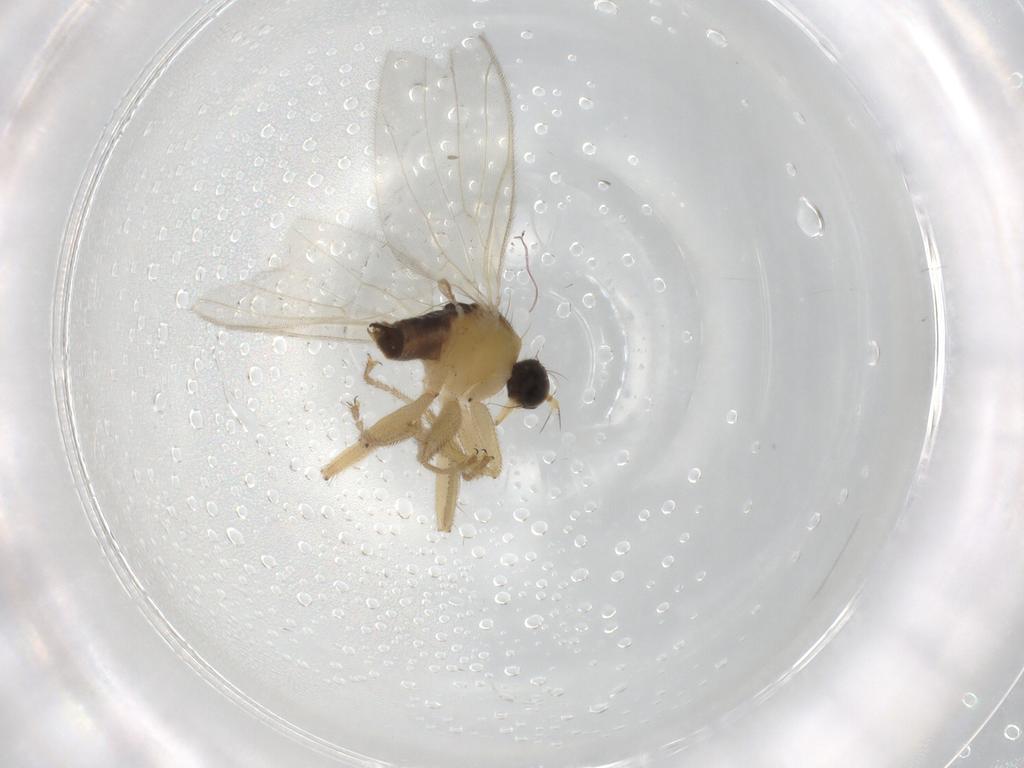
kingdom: Animalia
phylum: Arthropoda
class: Insecta
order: Diptera
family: Hybotidae
